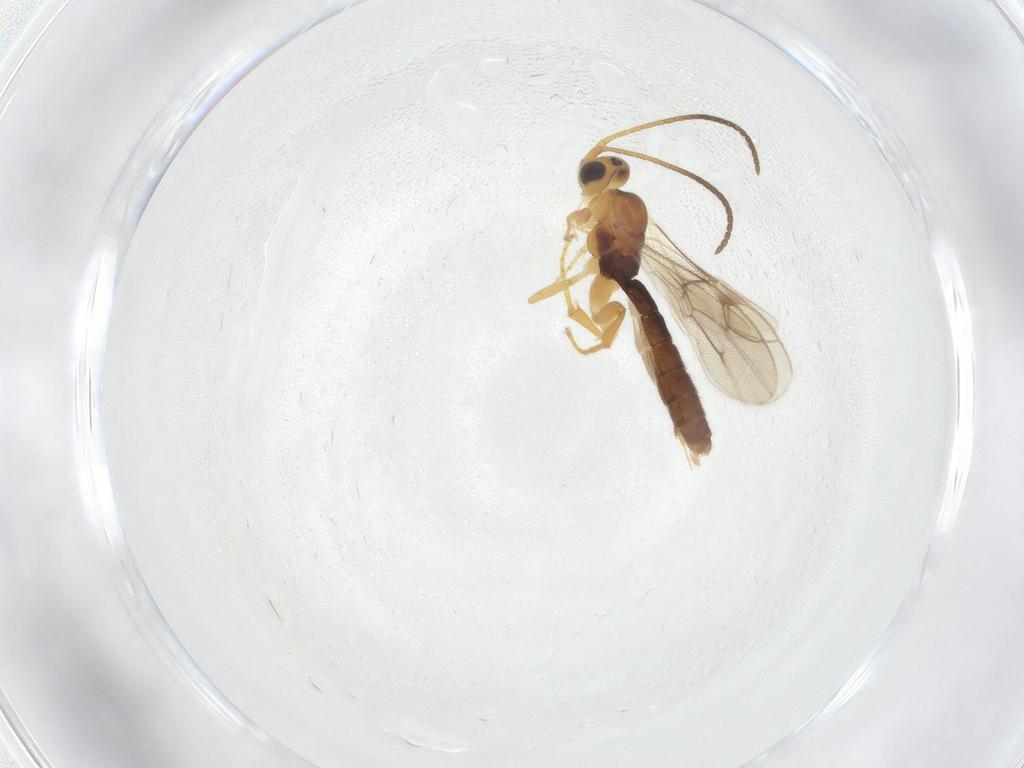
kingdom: Animalia
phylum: Arthropoda
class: Insecta
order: Hymenoptera
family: Ichneumonidae
